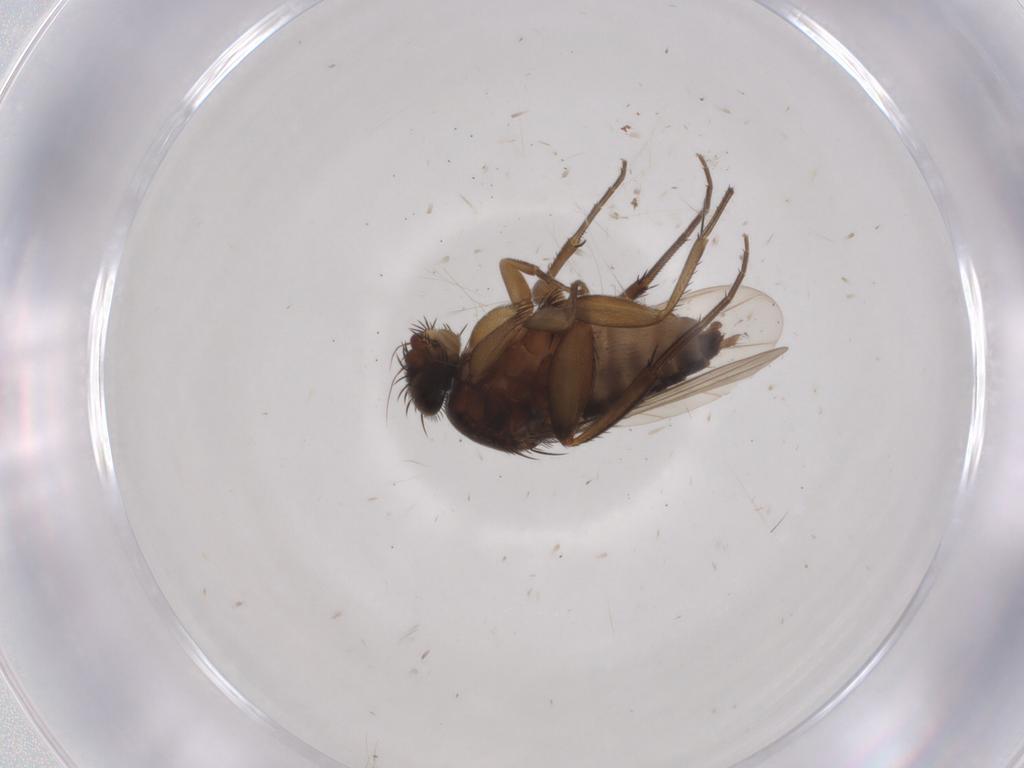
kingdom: Animalia
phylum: Arthropoda
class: Insecta
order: Diptera
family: Phoridae
